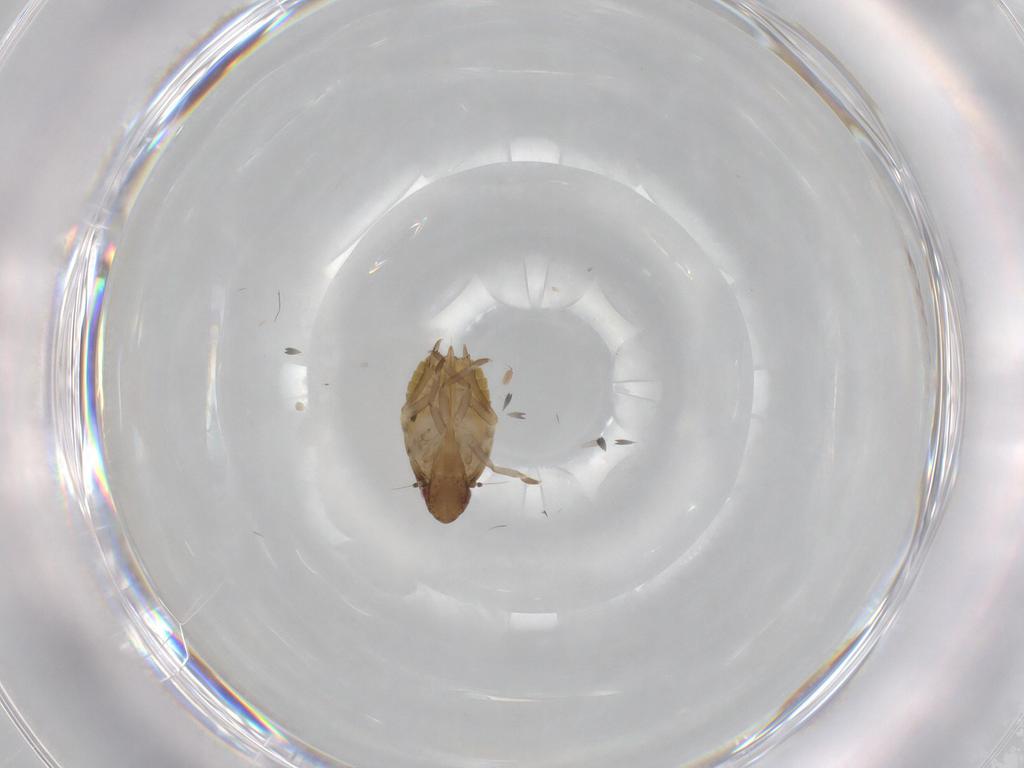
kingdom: Animalia
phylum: Arthropoda
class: Insecta
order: Hemiptera
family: Flatidae
